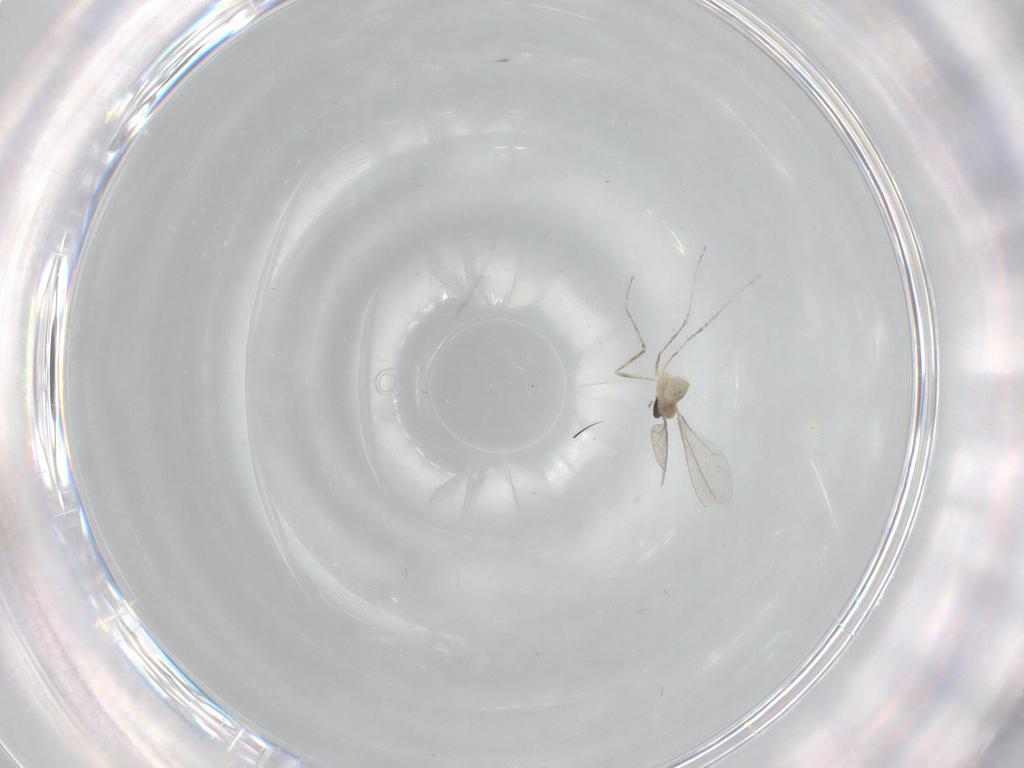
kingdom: Animalia
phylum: Arthropoda
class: Insecta
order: Diptera
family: Cecidomyiidae
